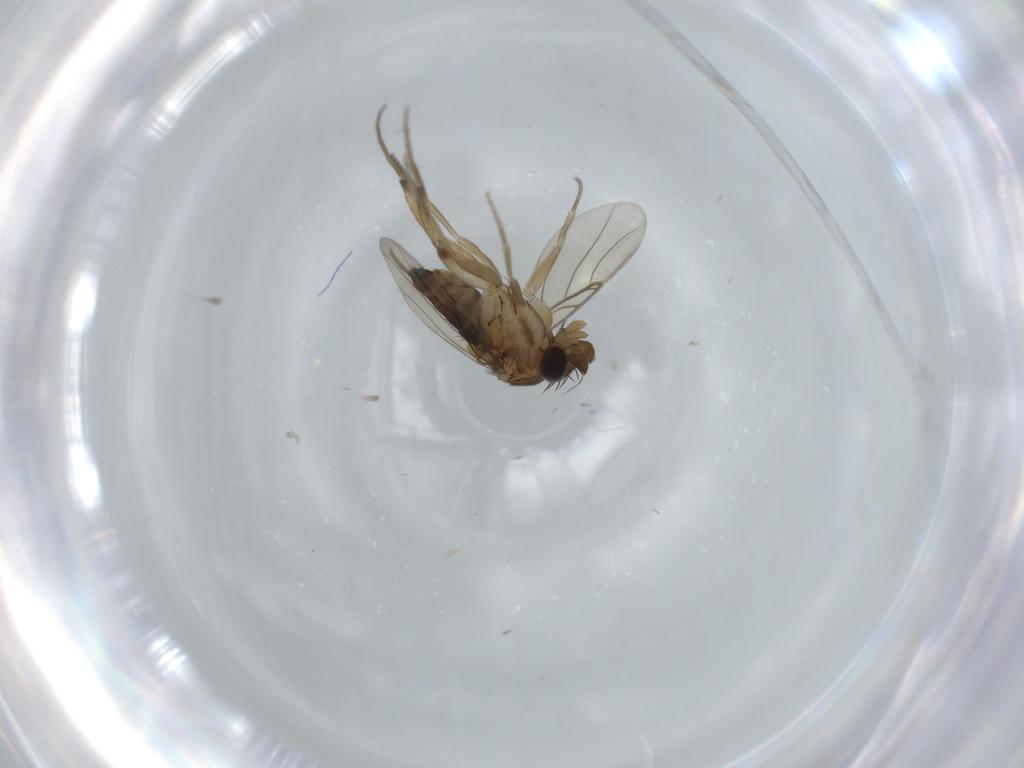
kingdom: Animalia
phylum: Arthropoda
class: Insecta
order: Diptera
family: Phoridae
